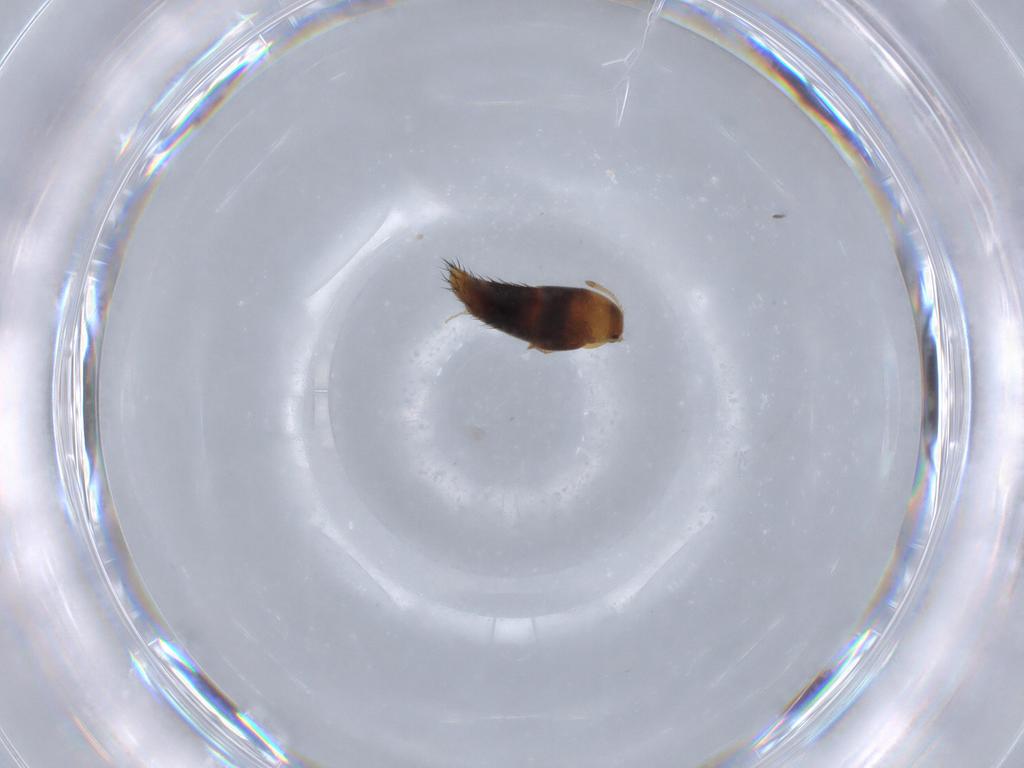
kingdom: Animalia
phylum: Arthropoda
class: Insecta
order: Coleoptera
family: Staphylinidae
